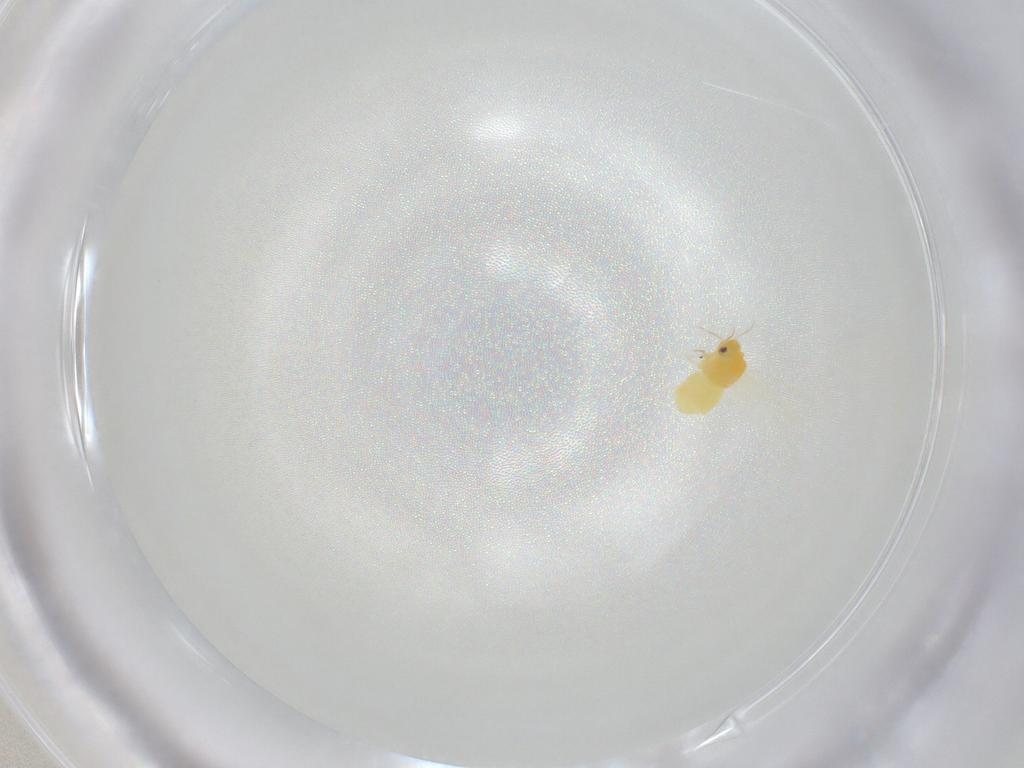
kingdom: Animalia
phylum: Arthropoda
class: Insecta
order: Hemiptera
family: Aleyrodidae
